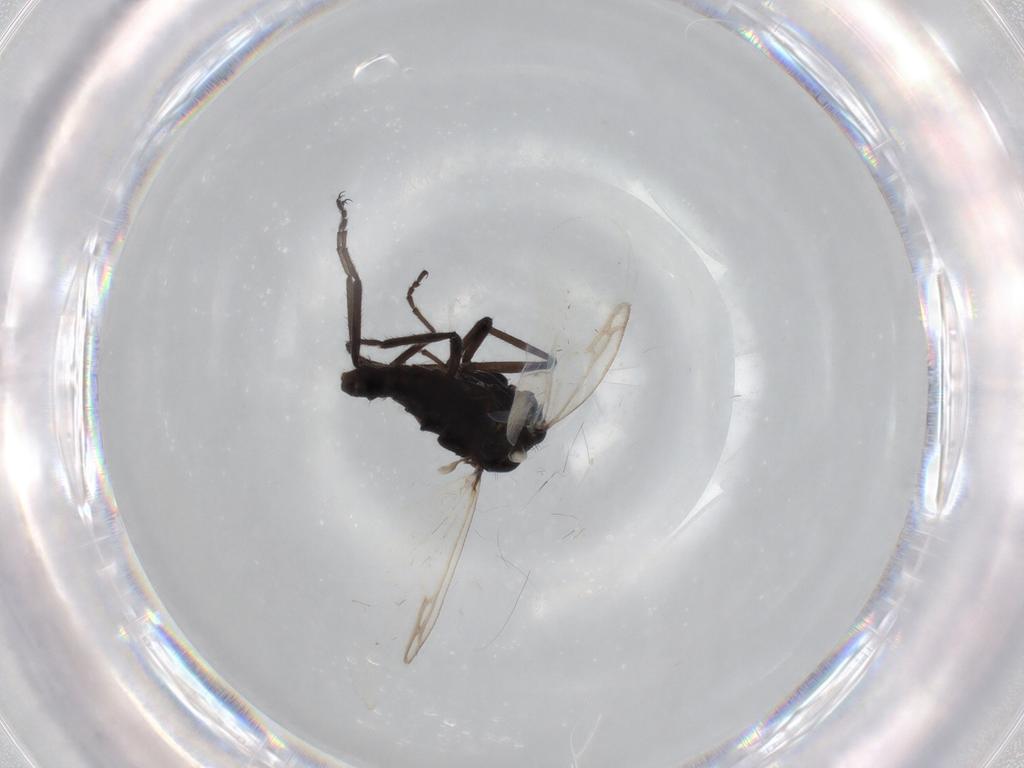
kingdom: Animalia
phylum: Arthropoda
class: Insecta
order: Diptera
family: Ceratopogonidae
